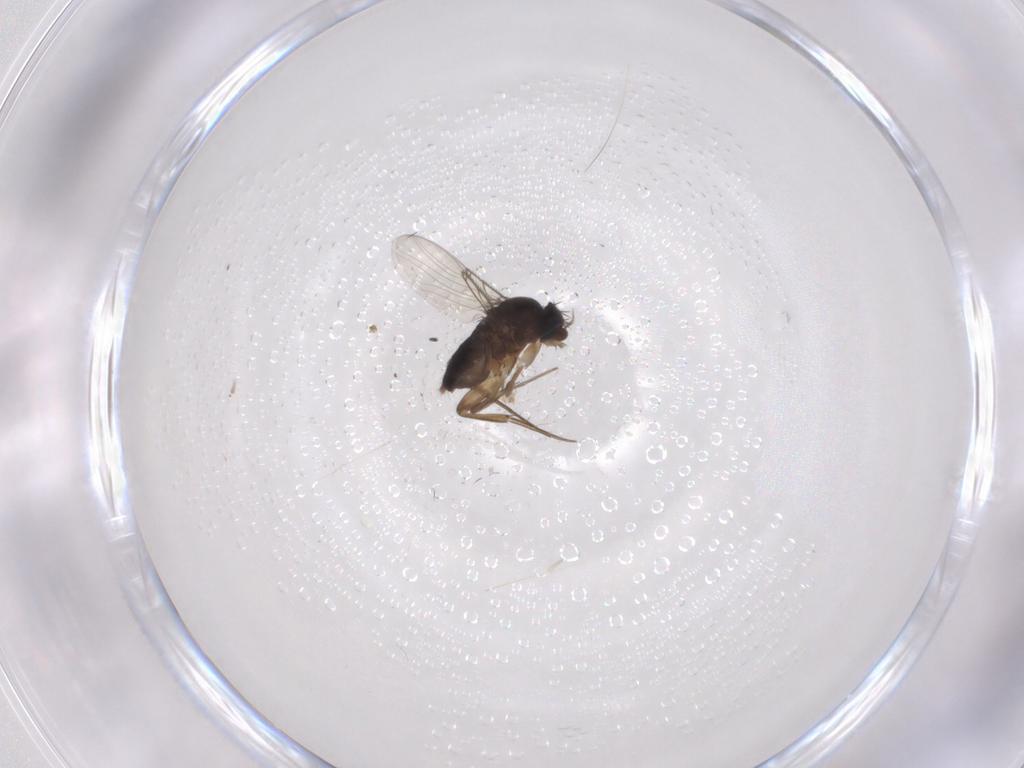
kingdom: Animalia
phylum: Arthropoda
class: Insecta
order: Diptera
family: Phoridae
